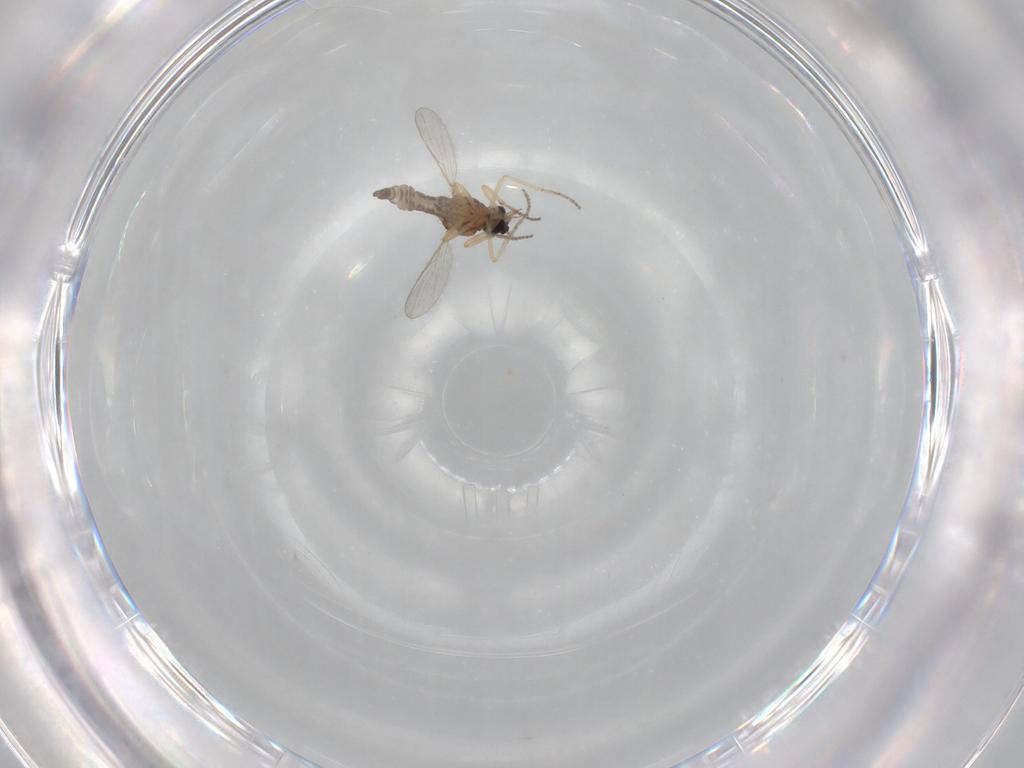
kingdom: Animalia
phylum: Arthropoda
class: Insecta
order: Diptera
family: Ceratopogonidae
